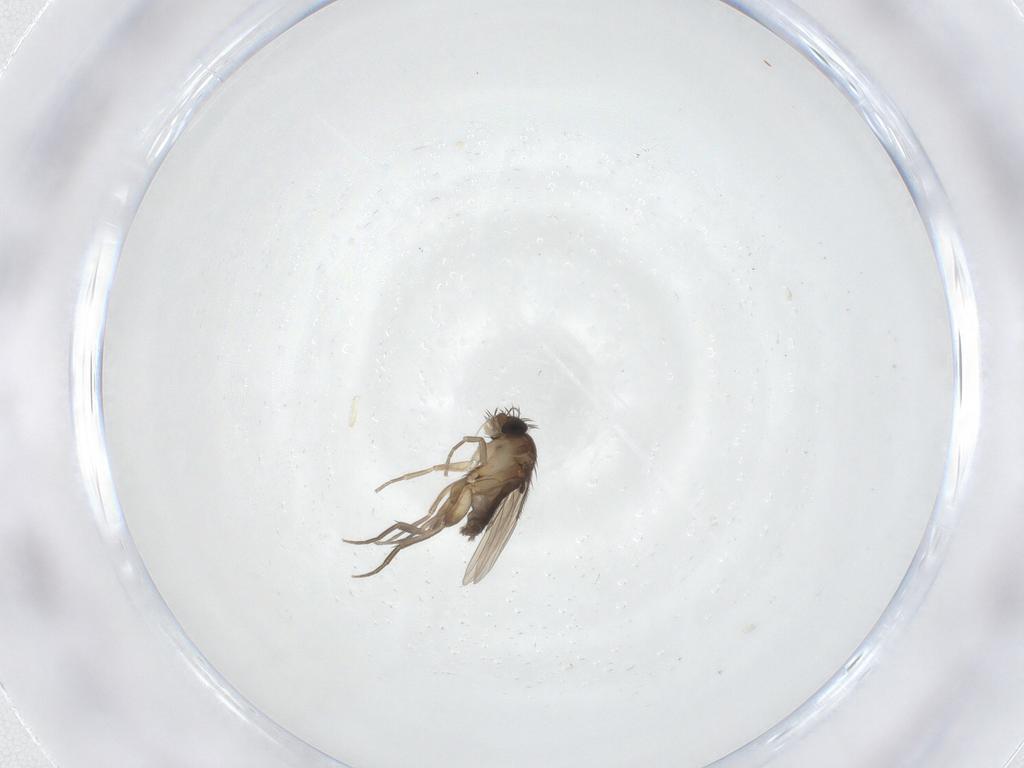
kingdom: Animalia
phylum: Arthropoda
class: Insecta
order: Diptera
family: Phoridae
